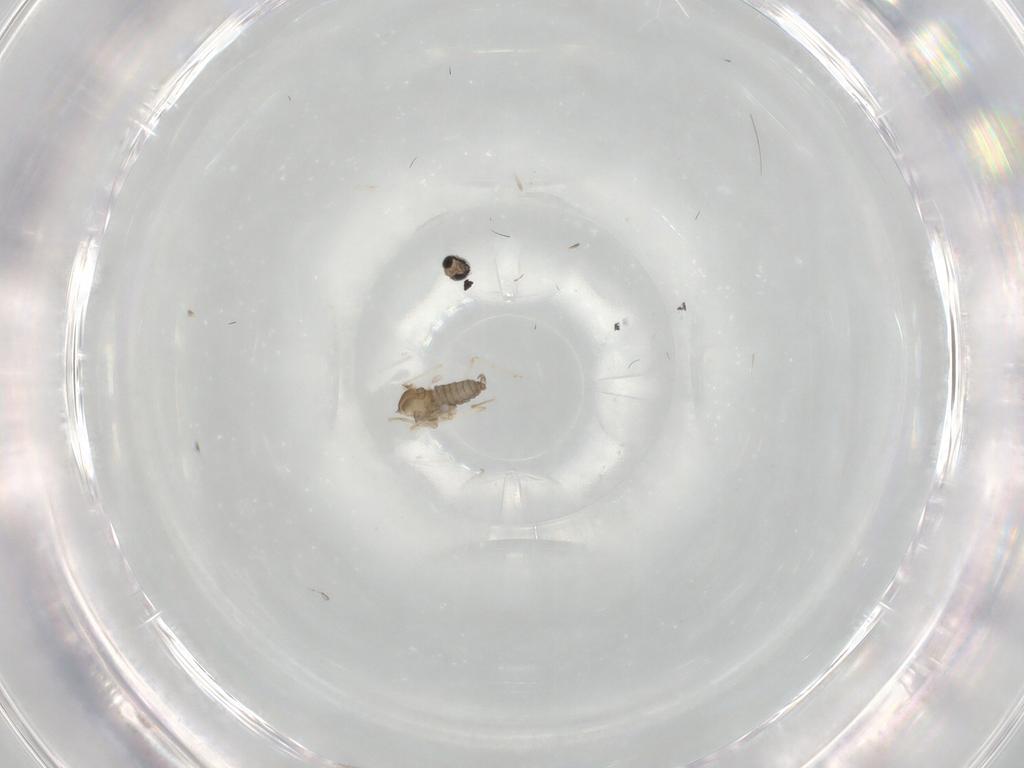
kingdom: Animalia
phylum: Arthropoda
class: Insecta
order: Diptera
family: Cecidomyiidae
